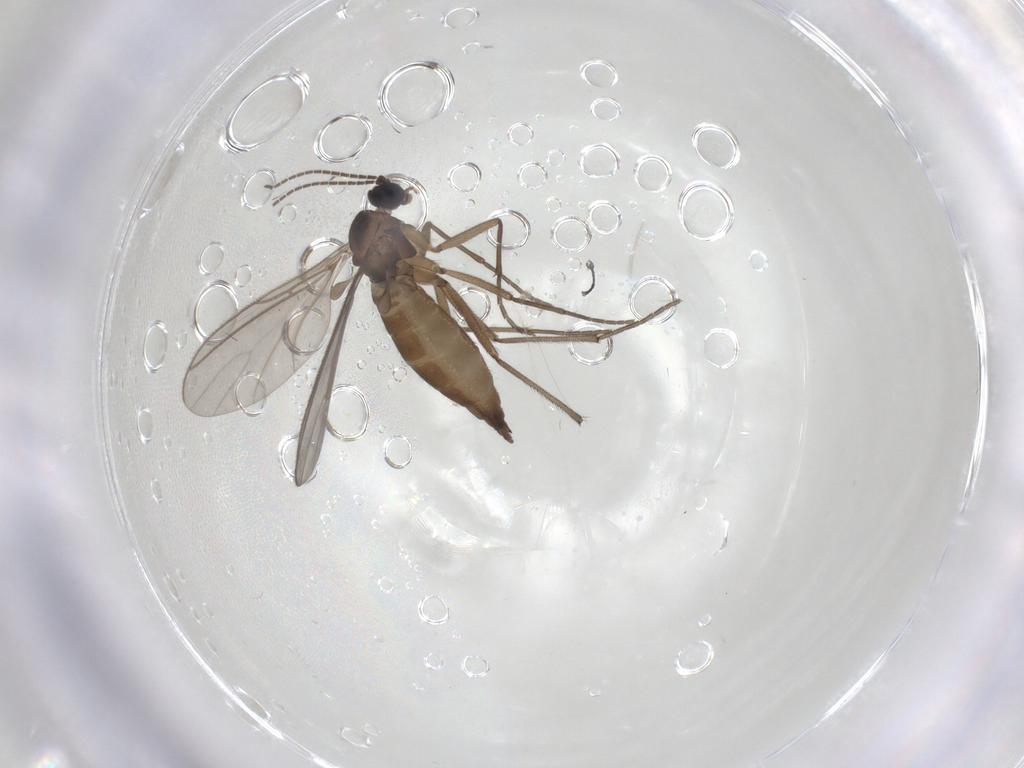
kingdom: Animalia
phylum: Arthropoda
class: Insecta
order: Diptera
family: Sciaridae
